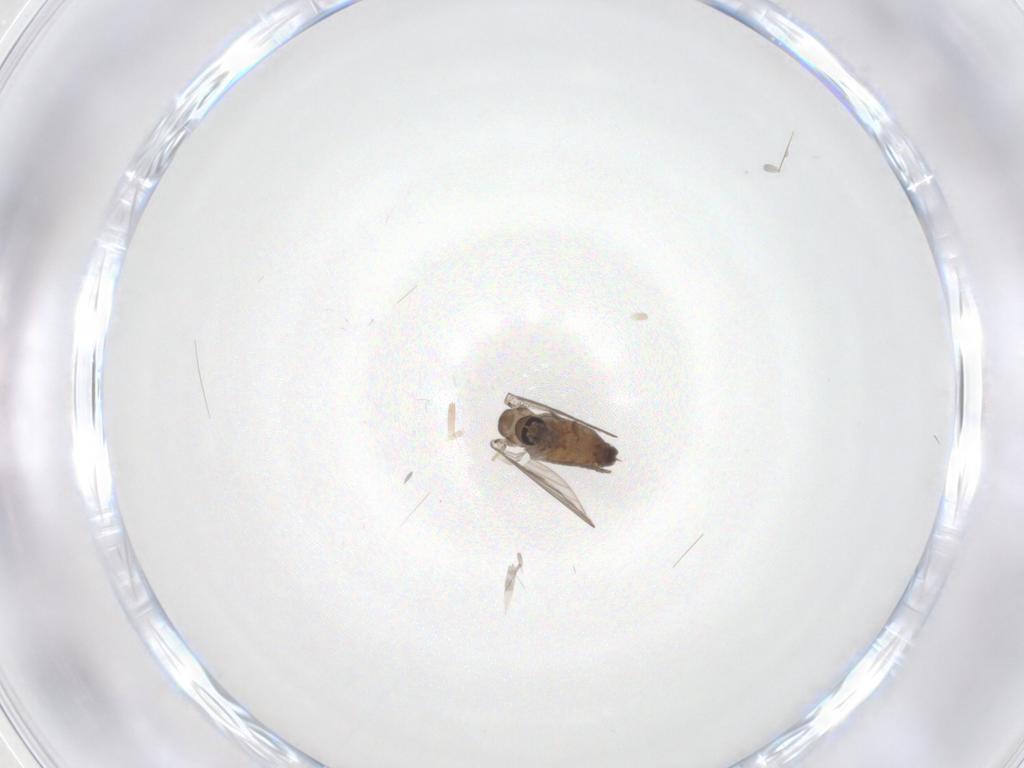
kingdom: Animalia
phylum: Arthropoda
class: Insecta
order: Diptera
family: Psychodidae
